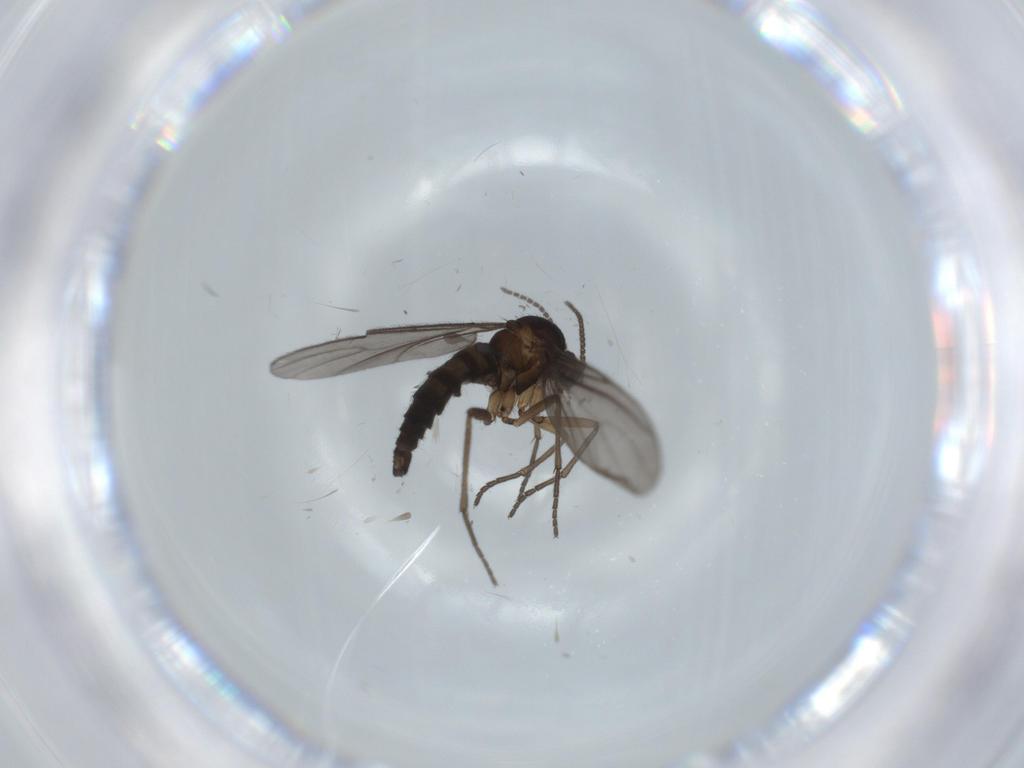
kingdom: Animalia
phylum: Arthropoda
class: Insecta
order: Diptera
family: Sciaridae
